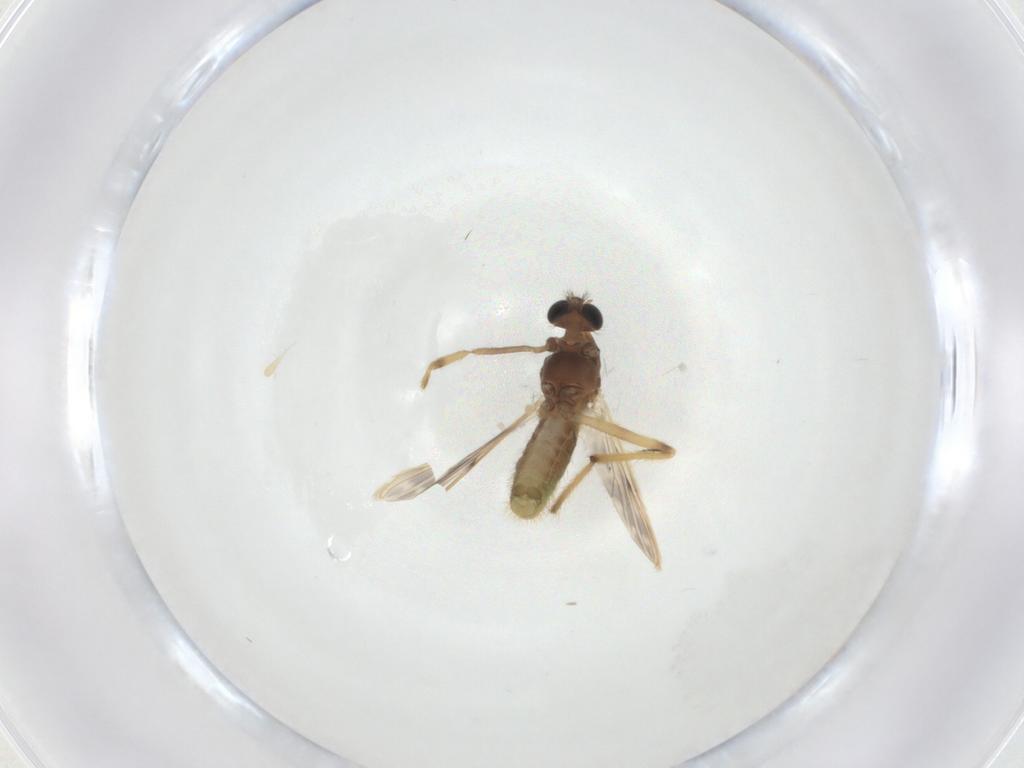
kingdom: Animalia
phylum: Arthropoda
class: Insecta
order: Diptera
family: Chironomidae
